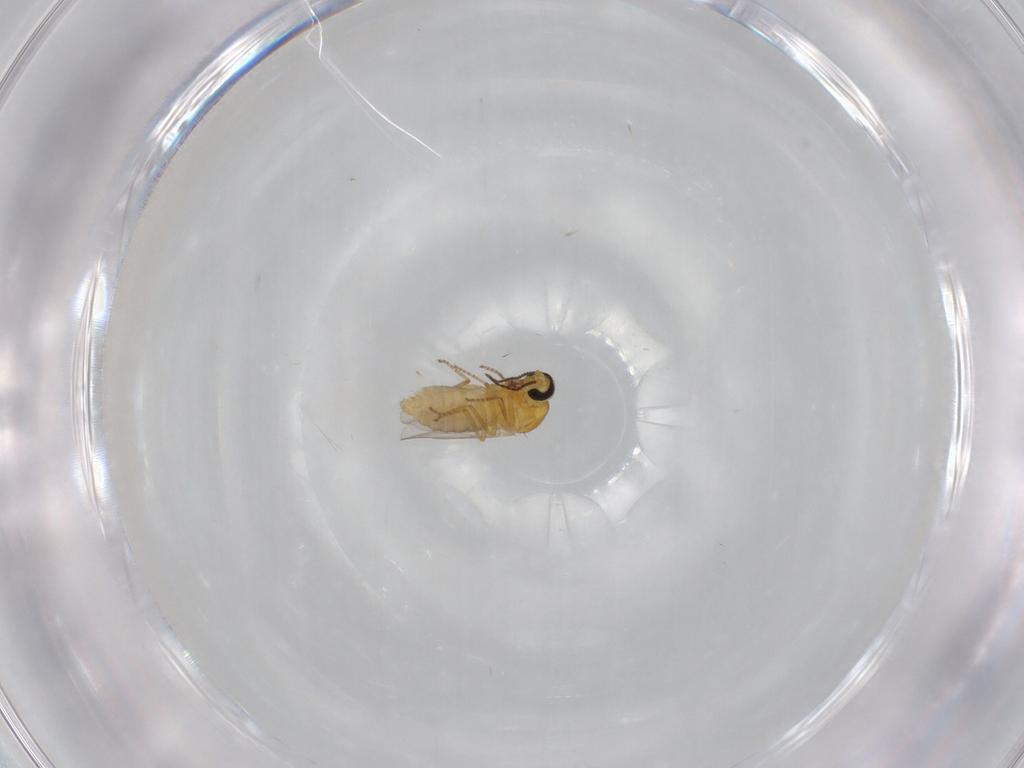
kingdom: Animalia
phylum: Arthropoda
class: Insecta
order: Diptera
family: Ceratopogonidae
